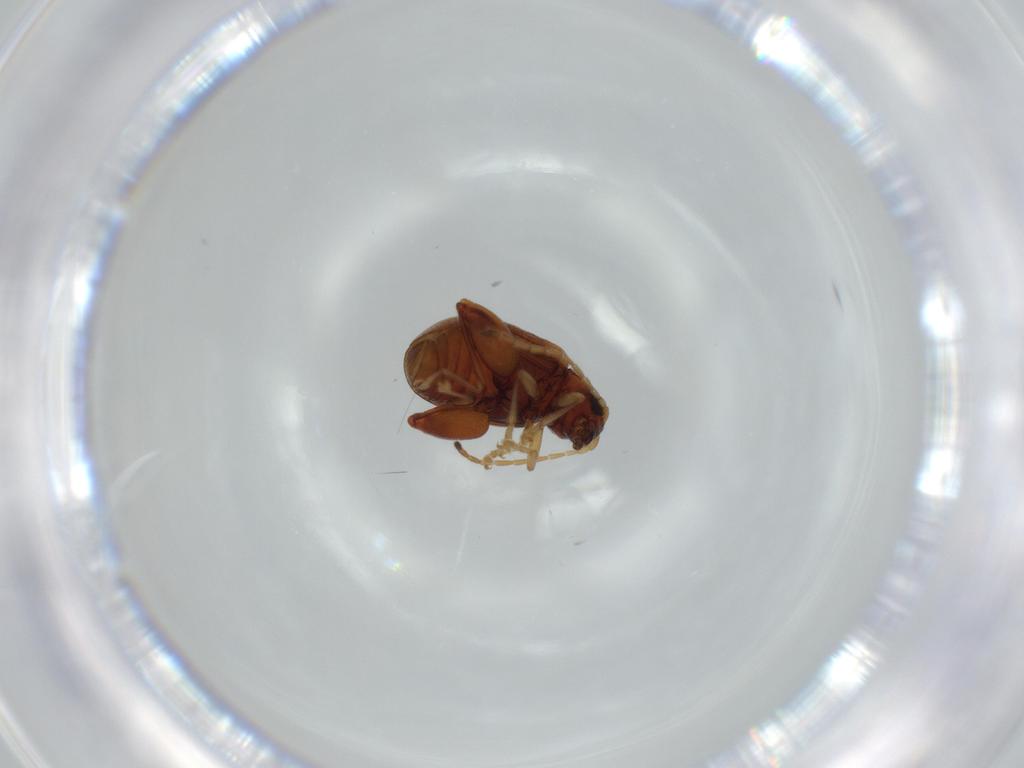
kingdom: Animalia
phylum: Arthropoda
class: Insecta
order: Coleoptera
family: Chrysomelidae
